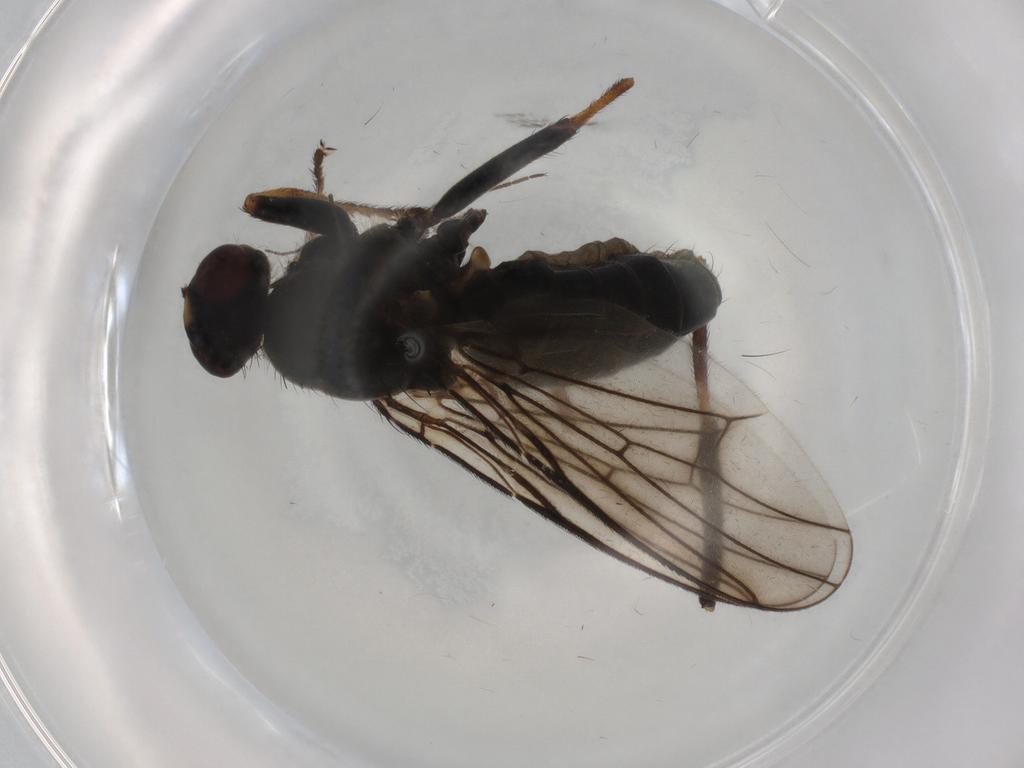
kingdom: Animalia
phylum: Arthropoda
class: Insecta
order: Diptera
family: Scathophagidae
